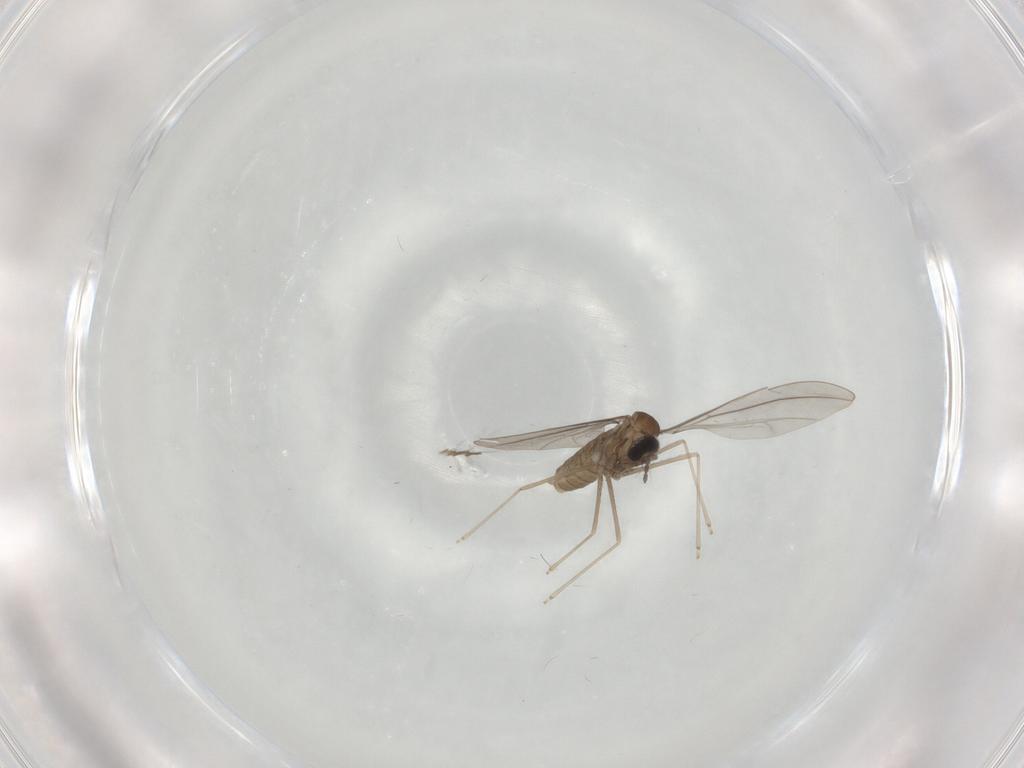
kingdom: Animalia
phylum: Arthropoda
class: Insecta
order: Diptera
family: Cecidomyiidae
